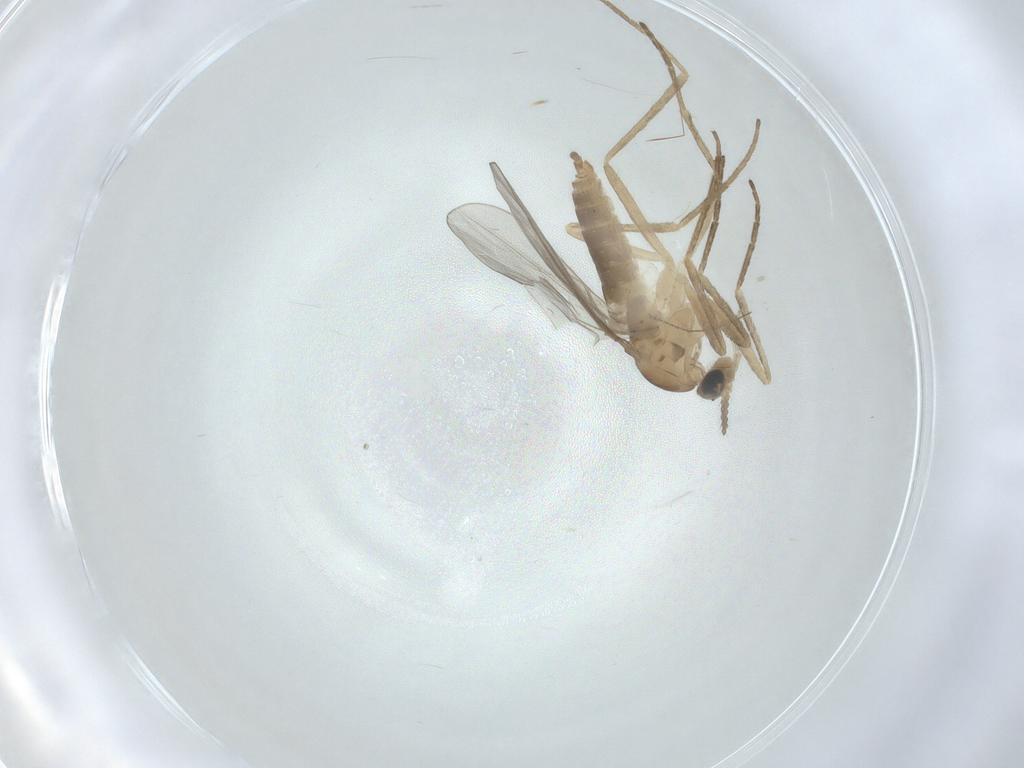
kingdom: Animalia
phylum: Arthropoda
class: Insecta
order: Diptera
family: Cecidomyiidae
